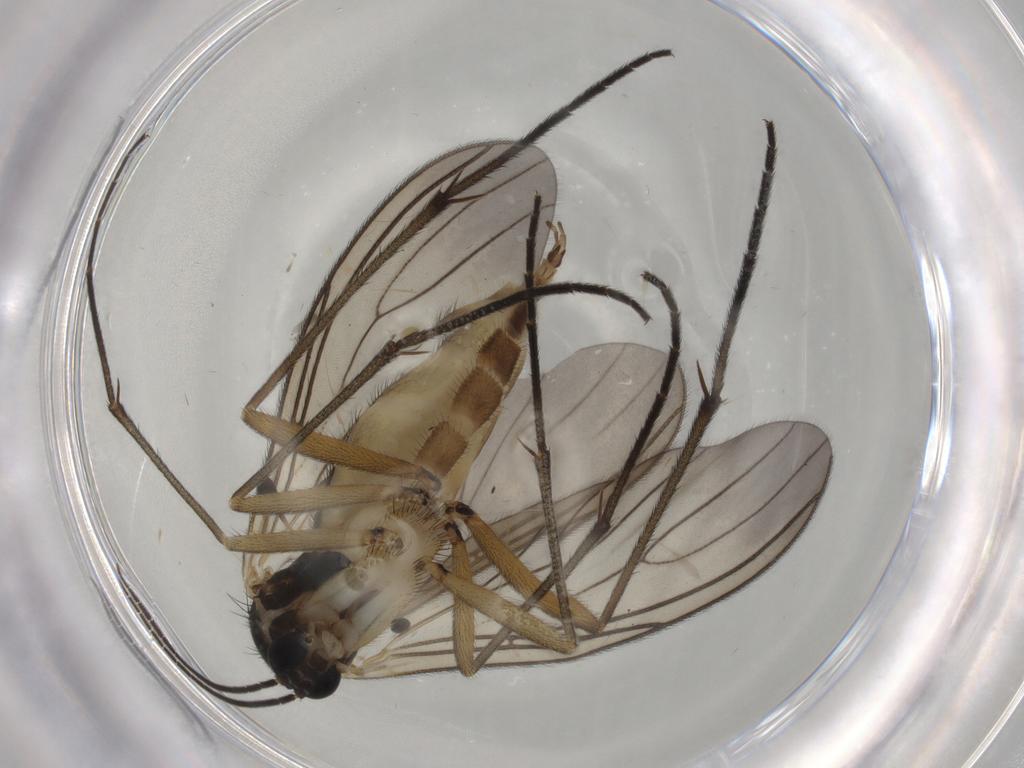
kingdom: Animalia
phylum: Arthropoda
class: Insecta
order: Diptera
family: Sciaridae
